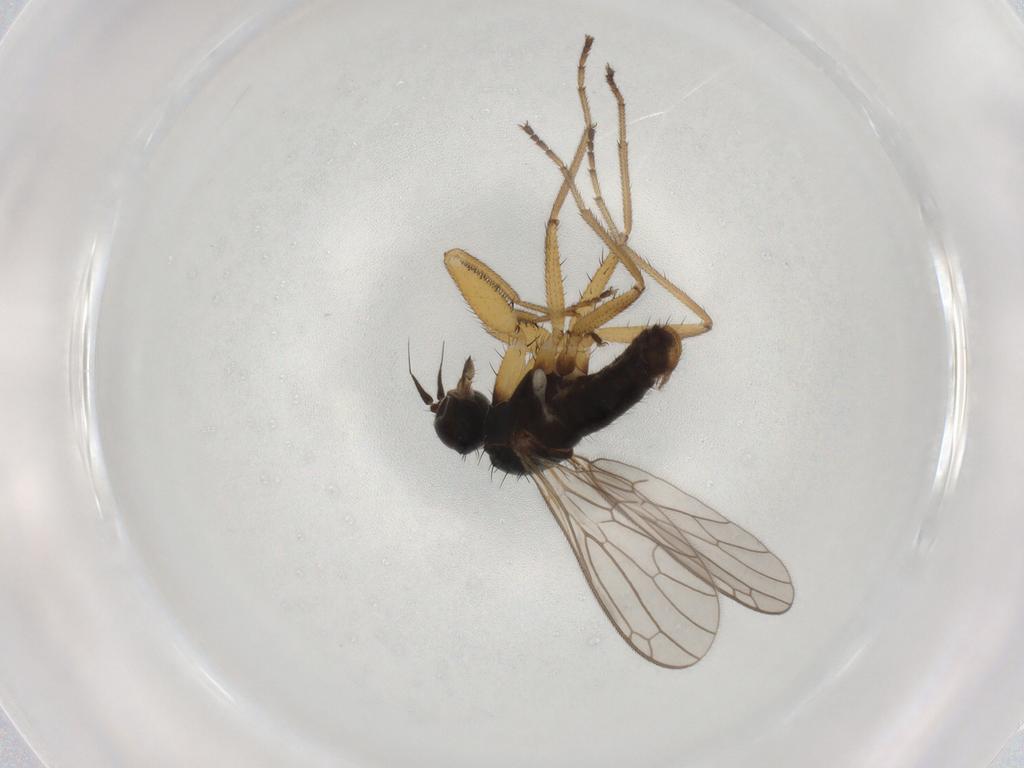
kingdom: Animalia
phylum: Arthropoda
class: Insecta
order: Diptera
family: Empididae
